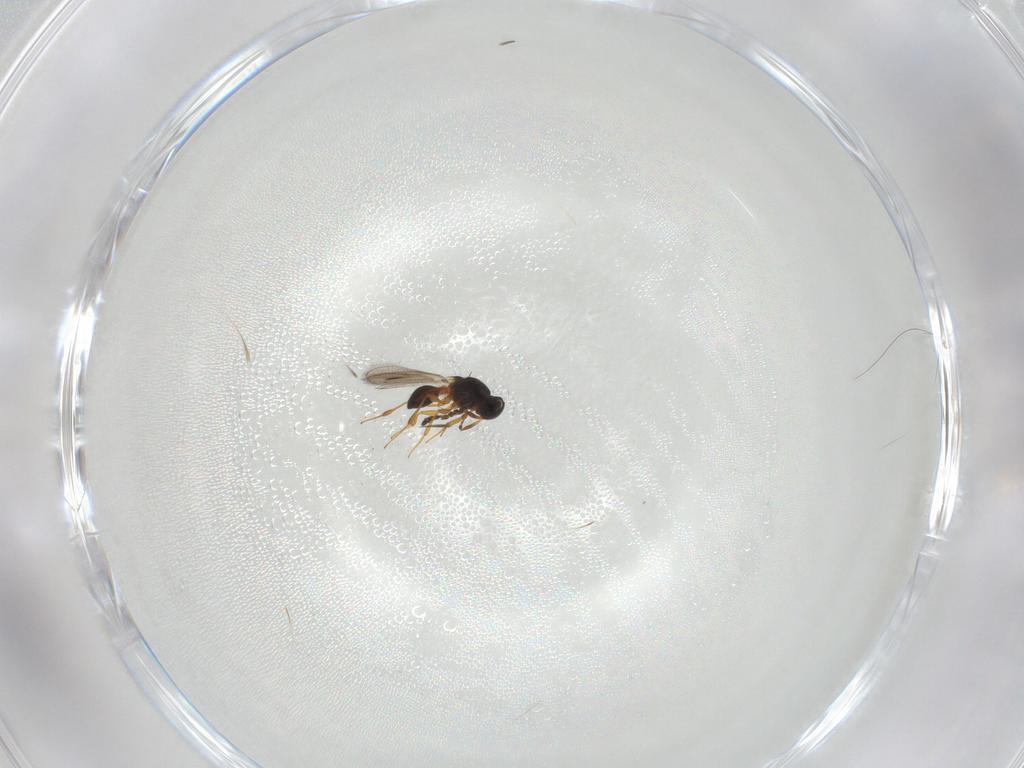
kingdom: Animalia
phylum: Arthropoda
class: Insecta
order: Hymenoptera
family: Platygastridae
